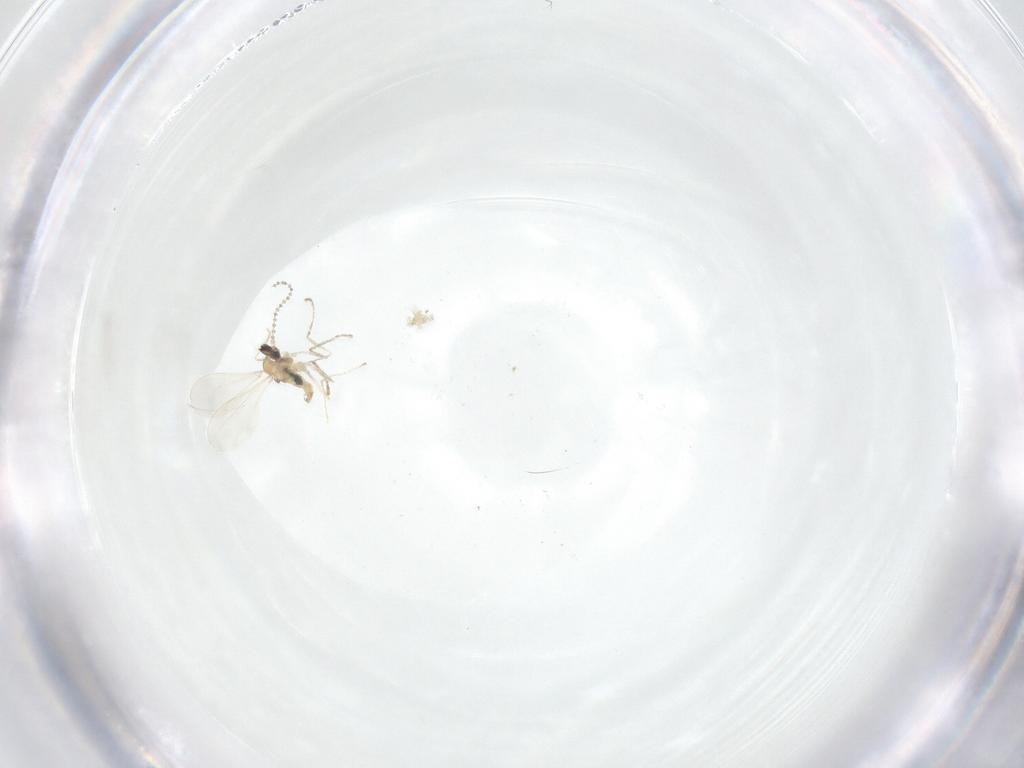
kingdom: Animalia
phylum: Arthropoda
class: Insecta
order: Diptera
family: Cecidomyiidae
